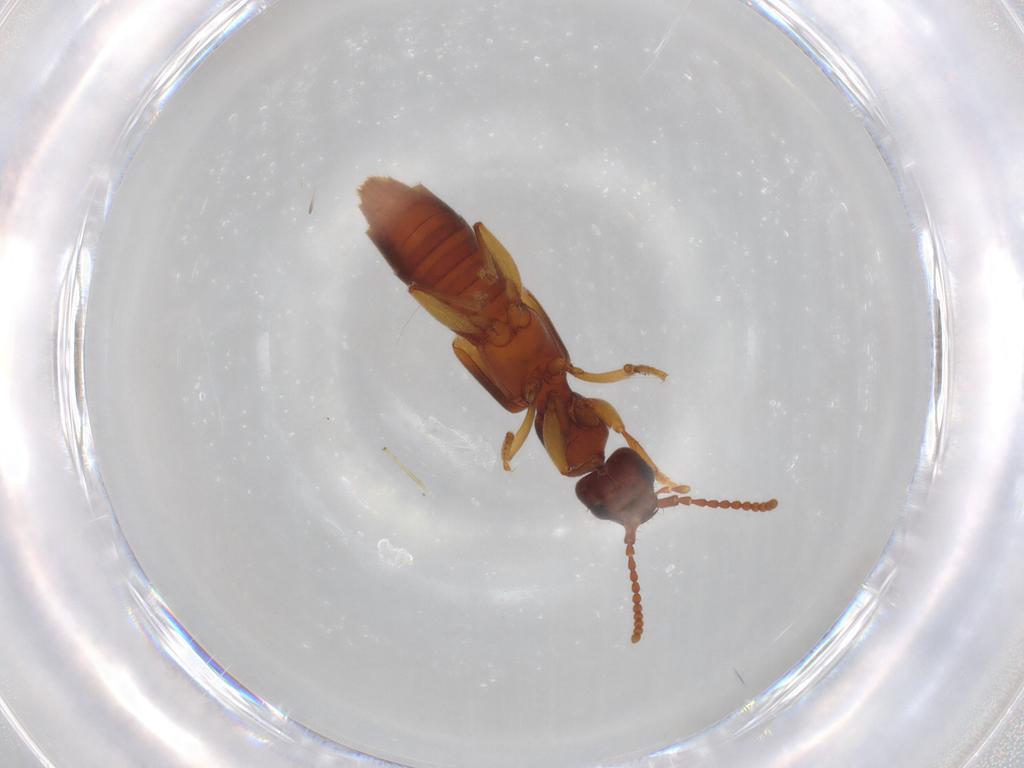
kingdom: Animalia
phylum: Arthropoda
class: Insecta
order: Coleoptera
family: Staphylinidae
